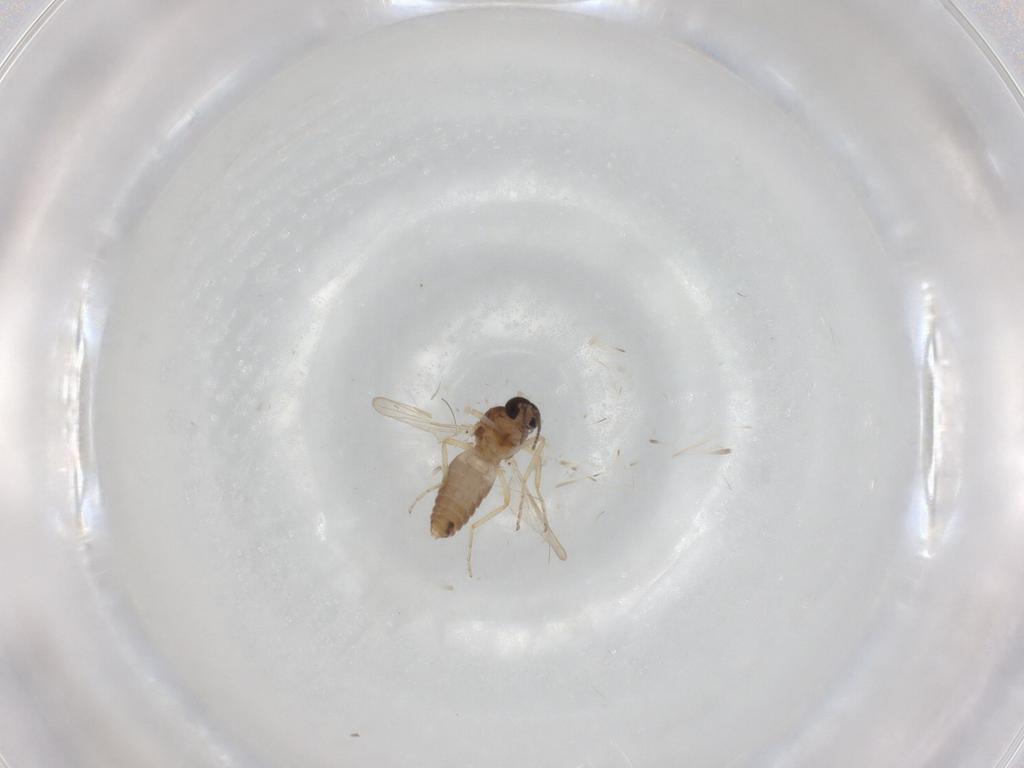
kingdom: Animalia
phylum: Arthropoda
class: Insecta
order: Diptera
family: Ceratopogonidae
